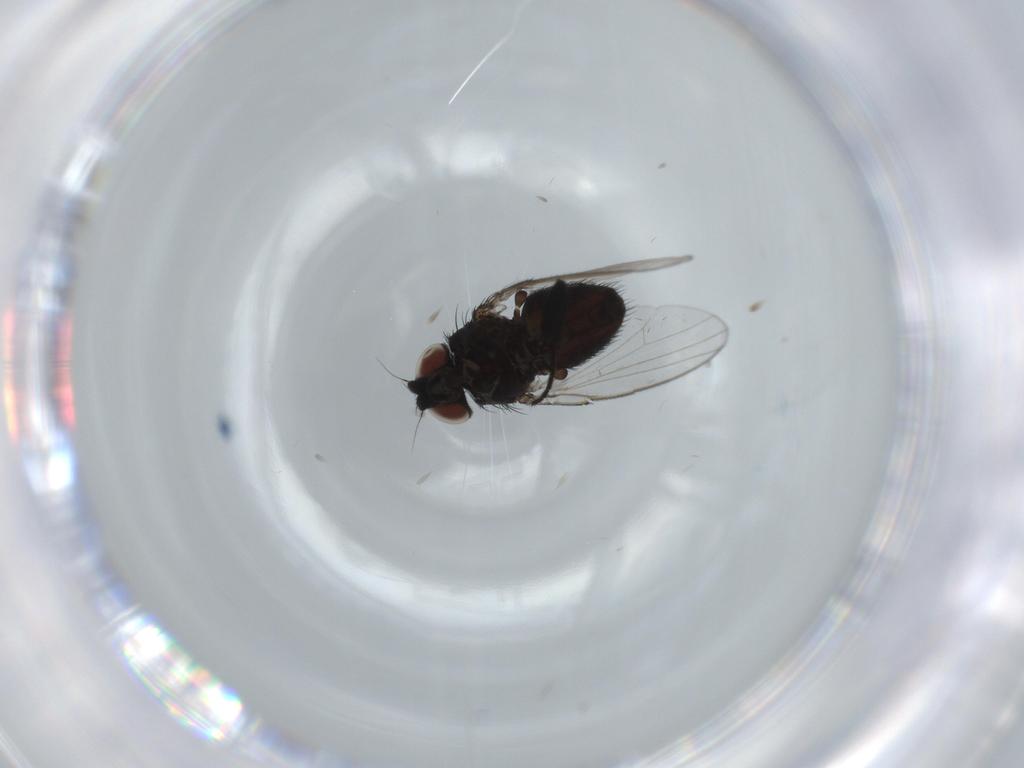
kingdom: Animalia
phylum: Arthropoda
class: Insecta
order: Diptera
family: Milichiidae
